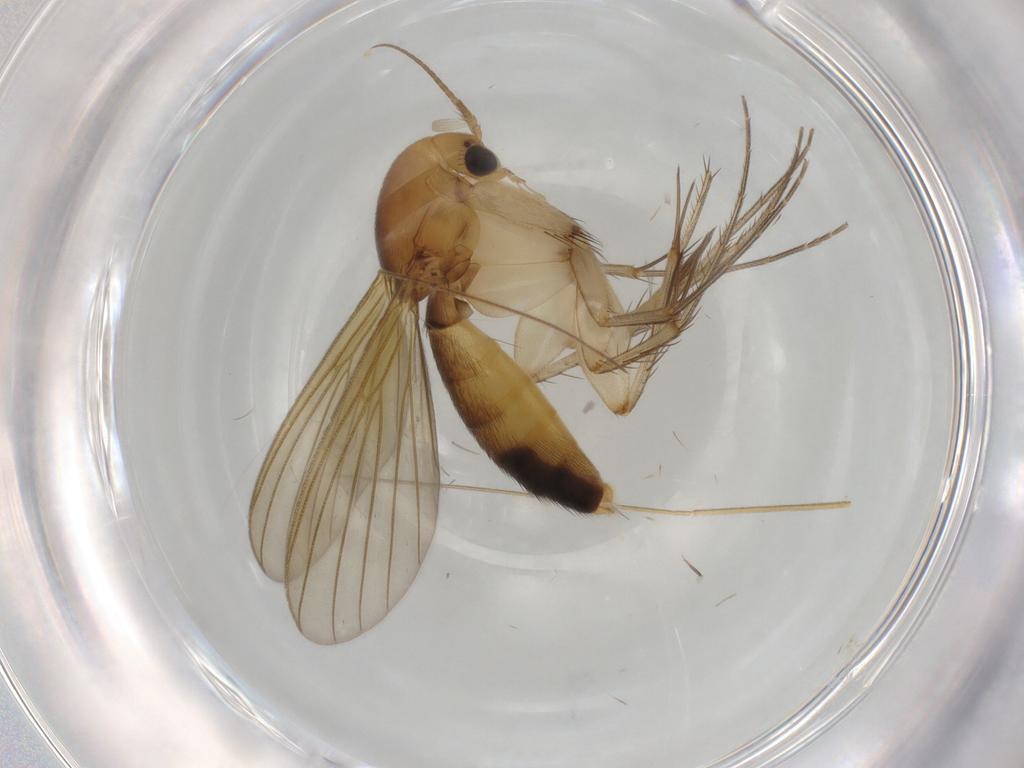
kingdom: Animalia
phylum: Arthropoda
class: Insecta
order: Diptera
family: Mycetophilidae
